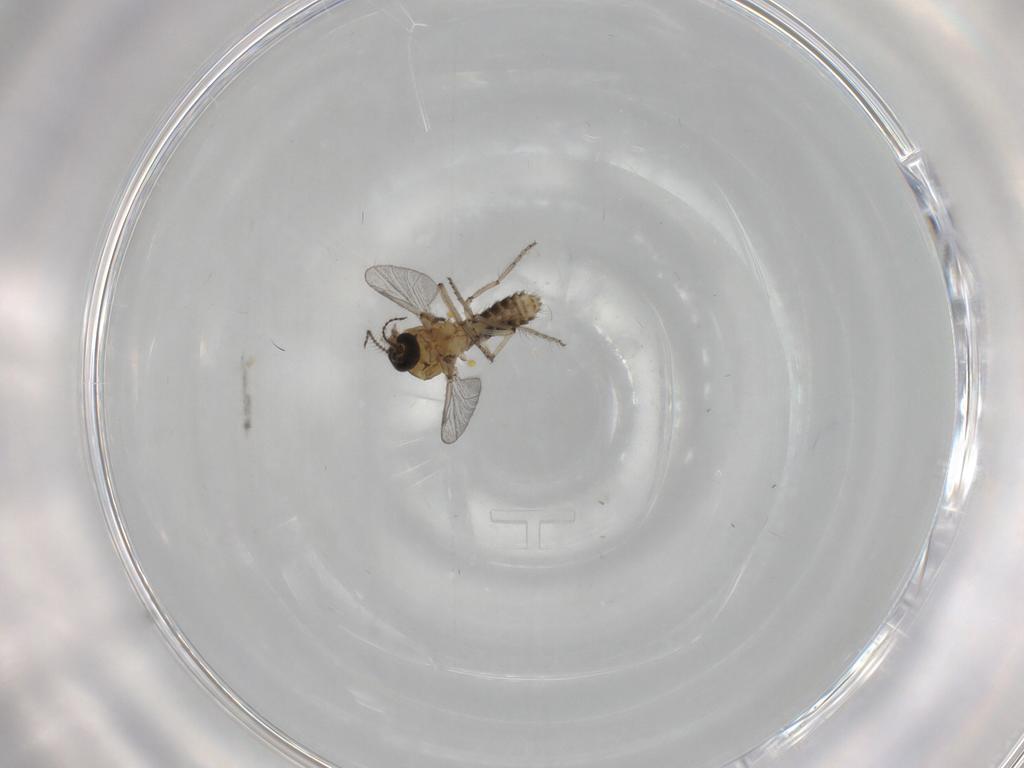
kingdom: Animalia
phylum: Arthropoda
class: Insecta
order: Diptera
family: Ceratopogonidae
